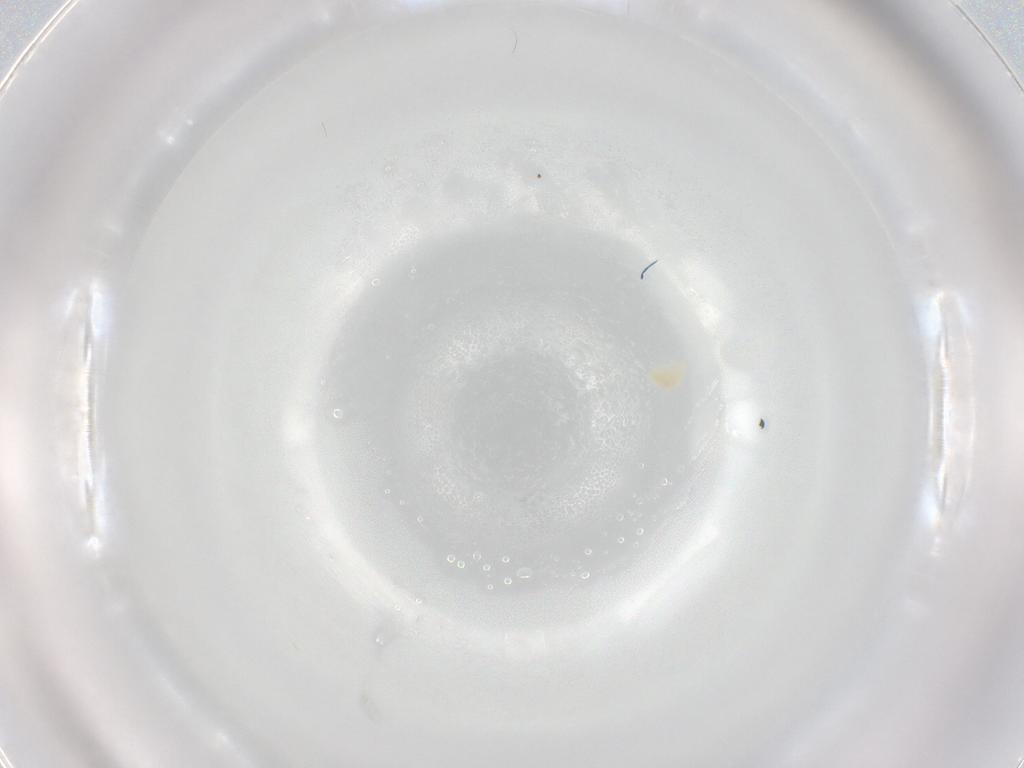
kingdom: Animalia
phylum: Arthropoda
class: Arachnida
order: Trombidiformes
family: Eupodidae
